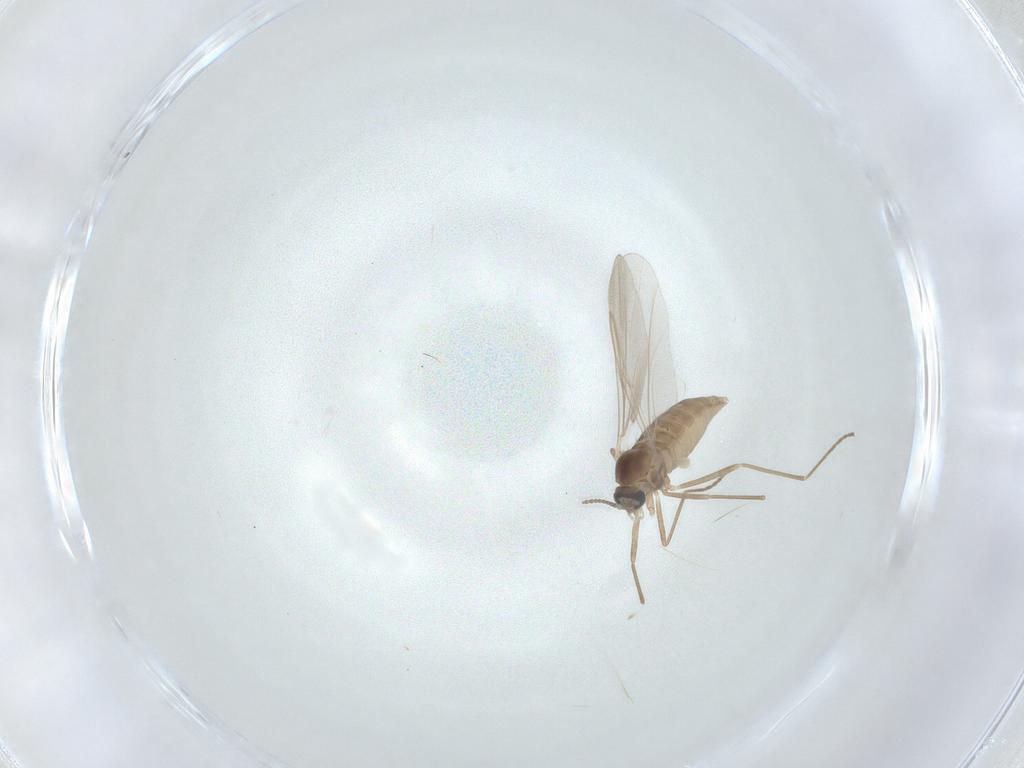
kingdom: Animalia
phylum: Arthropoda
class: Insecta
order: Diptera
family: Cecidomyiidae
